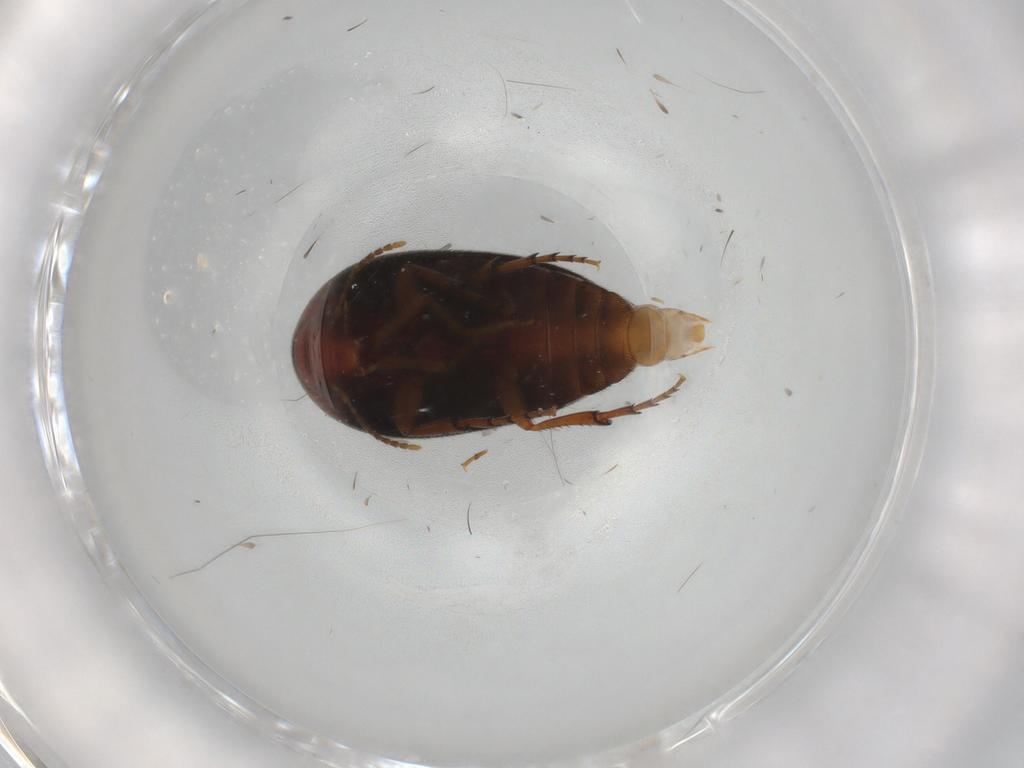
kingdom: Animalia
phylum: Arthropoda
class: Insecta
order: Coleoptera
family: Eucinetidae
